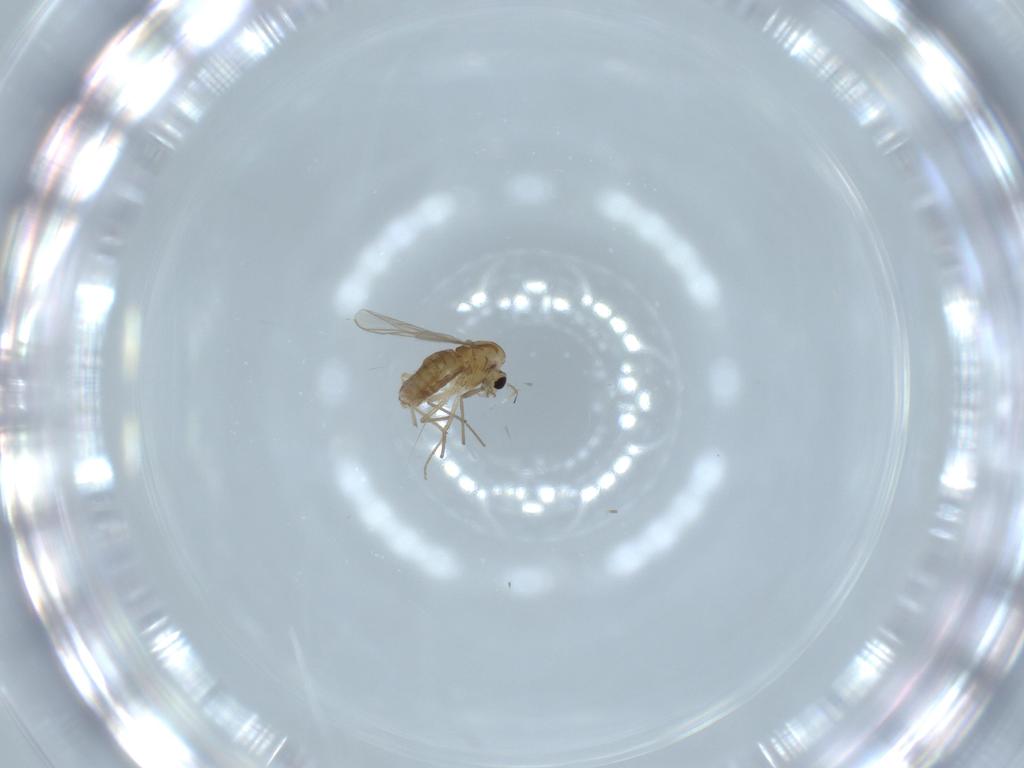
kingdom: Animalia
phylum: Arthropoda
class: Insecta
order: Diptera
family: Chironomidae
